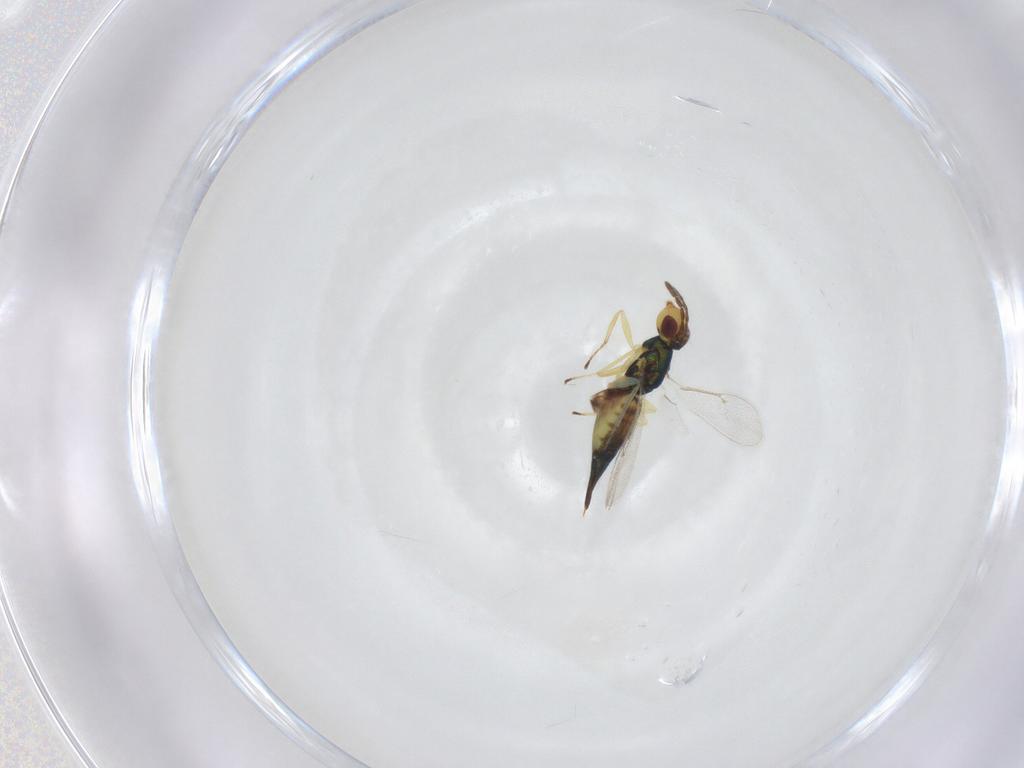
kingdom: Animalia
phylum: Arthropoda
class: Insecta
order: Hymenoptera
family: Eulophidae
